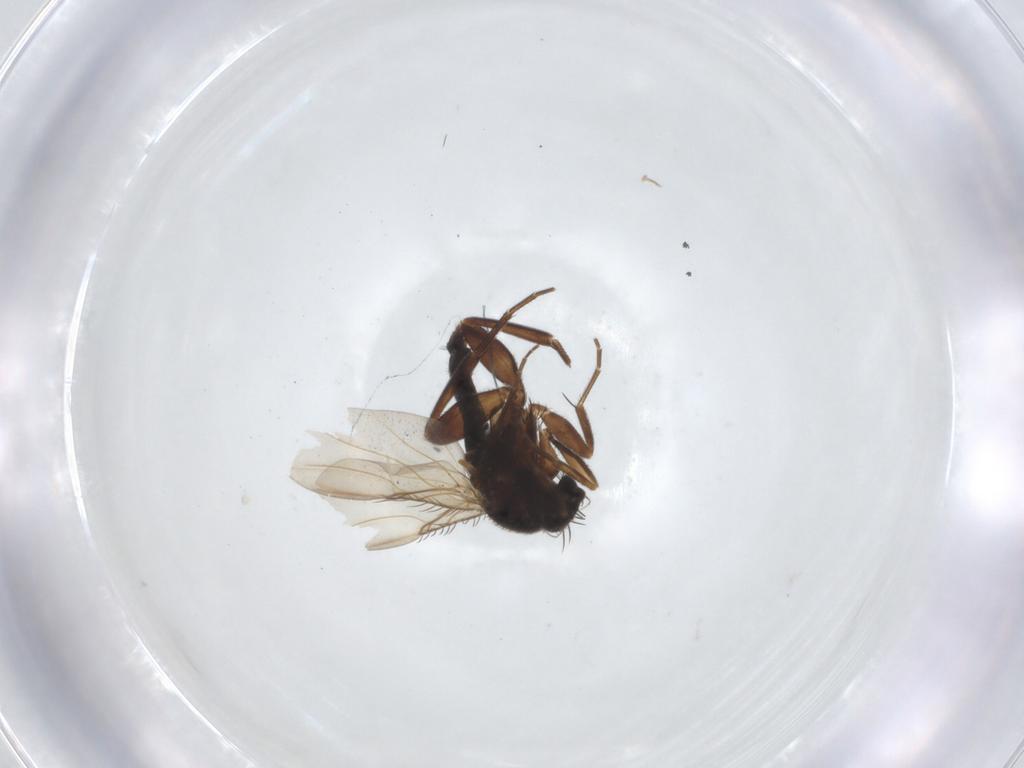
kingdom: Animalia
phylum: Arthropoda
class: Insecta
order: Diptera
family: Phoridae
